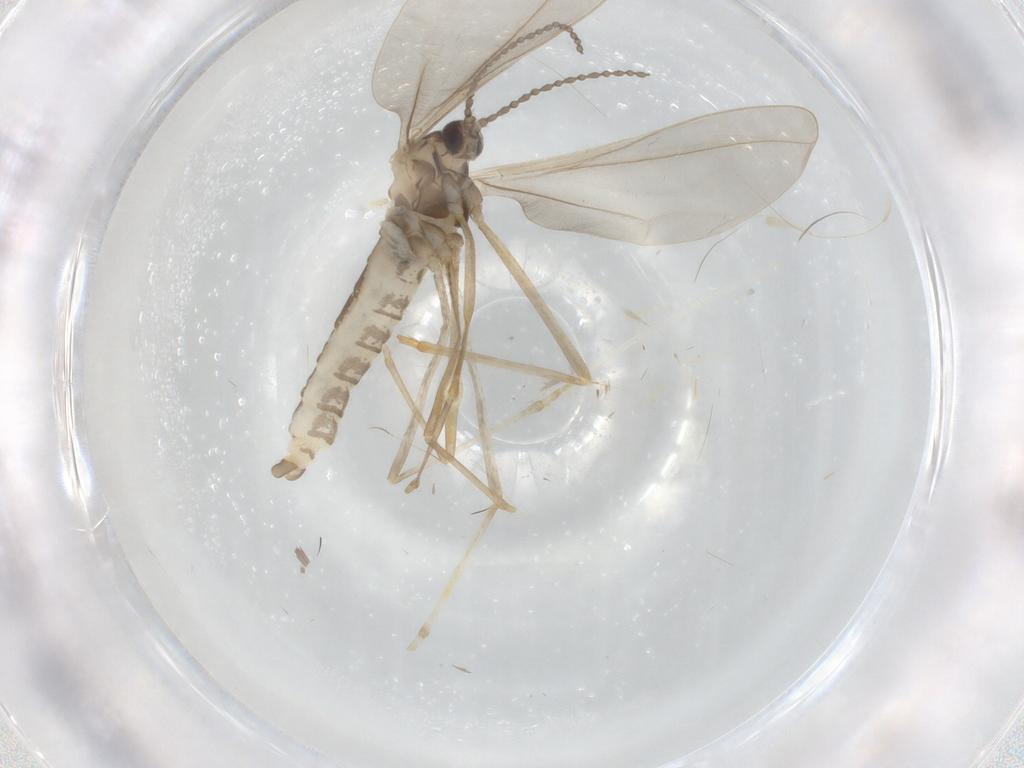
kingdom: Animalia
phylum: Arthropoda
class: Insecta
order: Diptera
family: Cecidomyiidae
